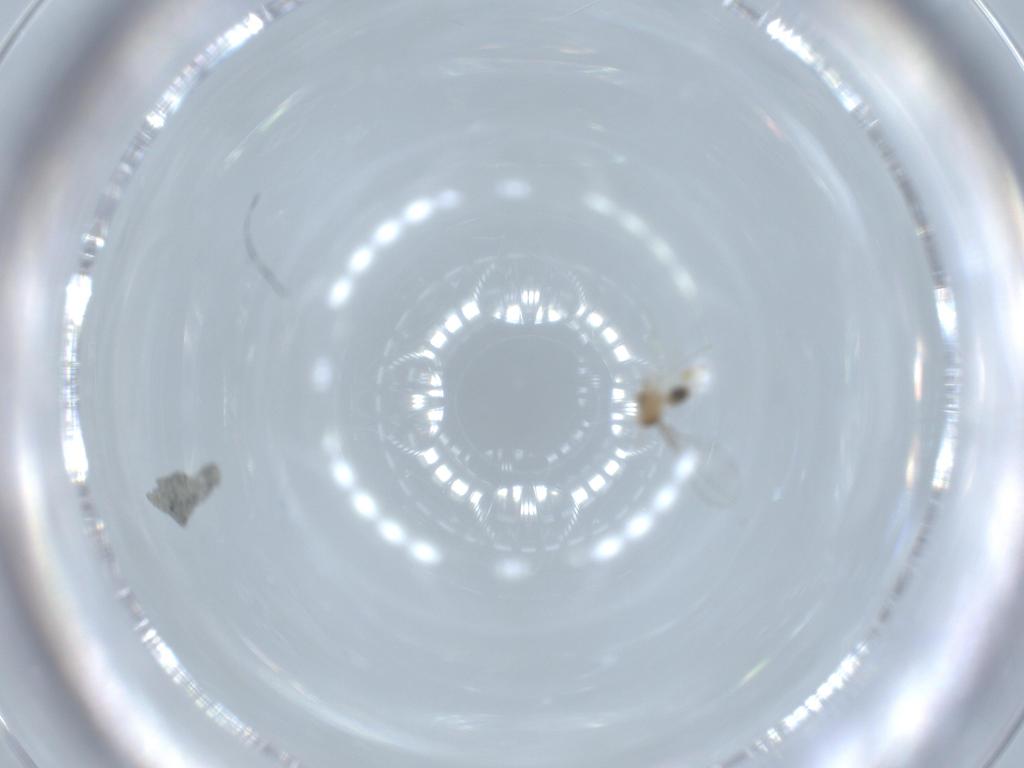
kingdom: Animalia
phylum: Arthropoda
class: Insecta
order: Diptera
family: Cecidomyiidae
